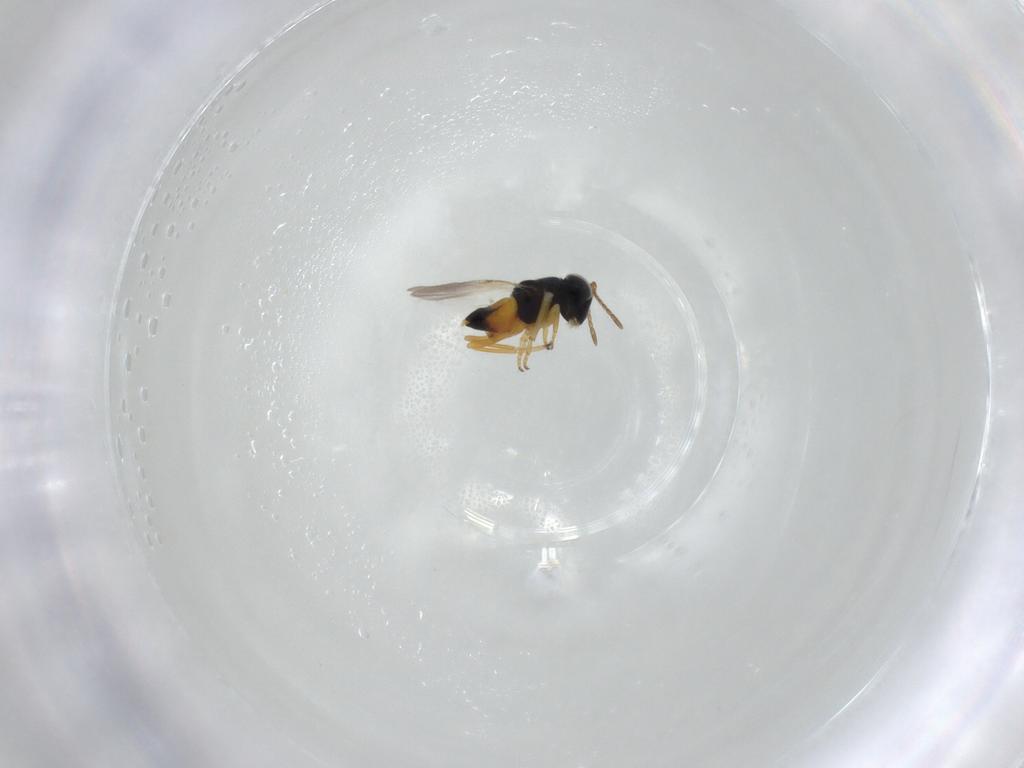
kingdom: Animalia
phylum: Arthropoda
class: Insecta
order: Hymenoptera
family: Encyrtidae
